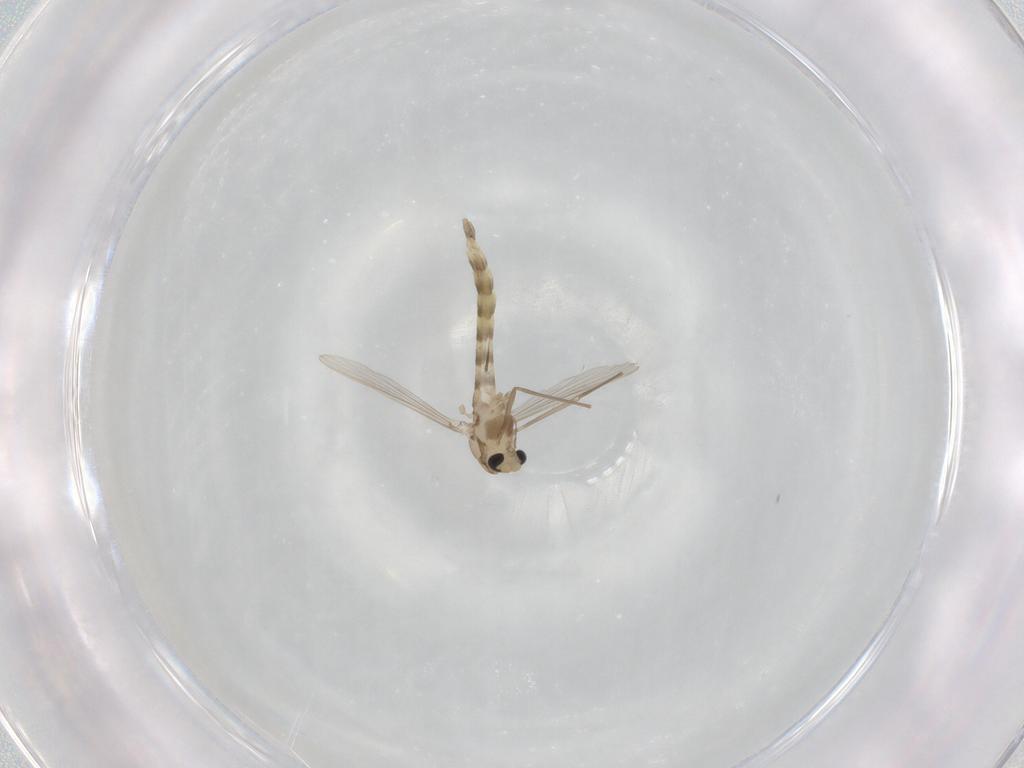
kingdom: Animalia
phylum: Arthropoda
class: Insecta
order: Diptera
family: Chironomidae
